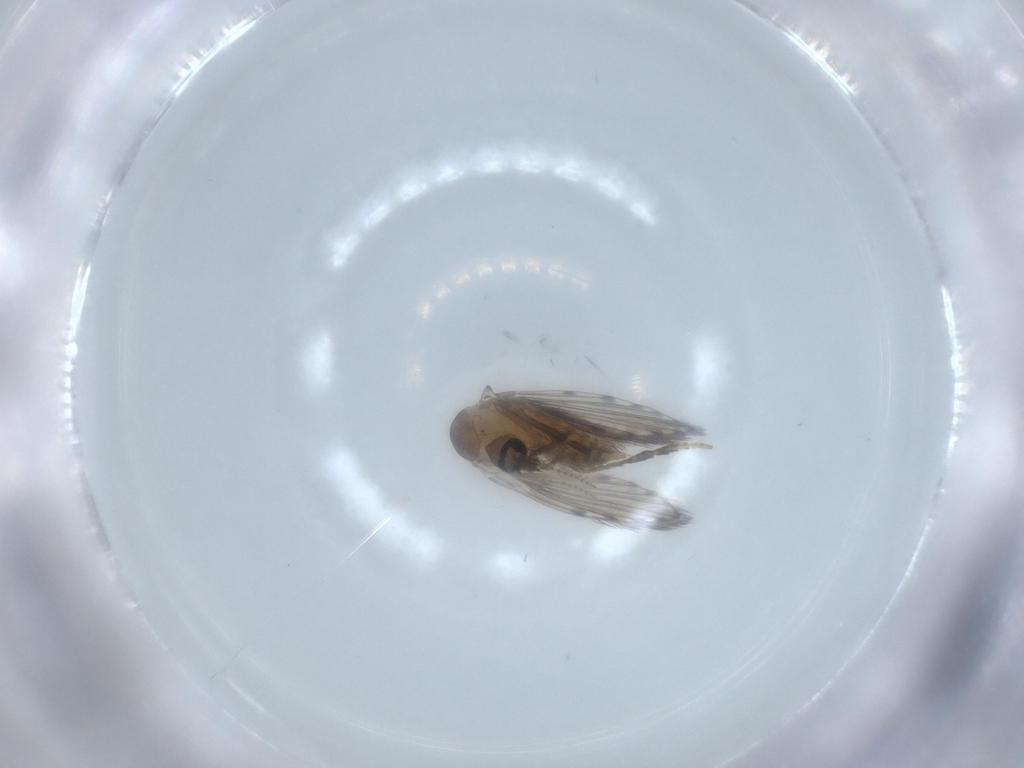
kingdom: Animalia
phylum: Arthropoda
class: Insecta
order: Diptera
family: Psychodidae
